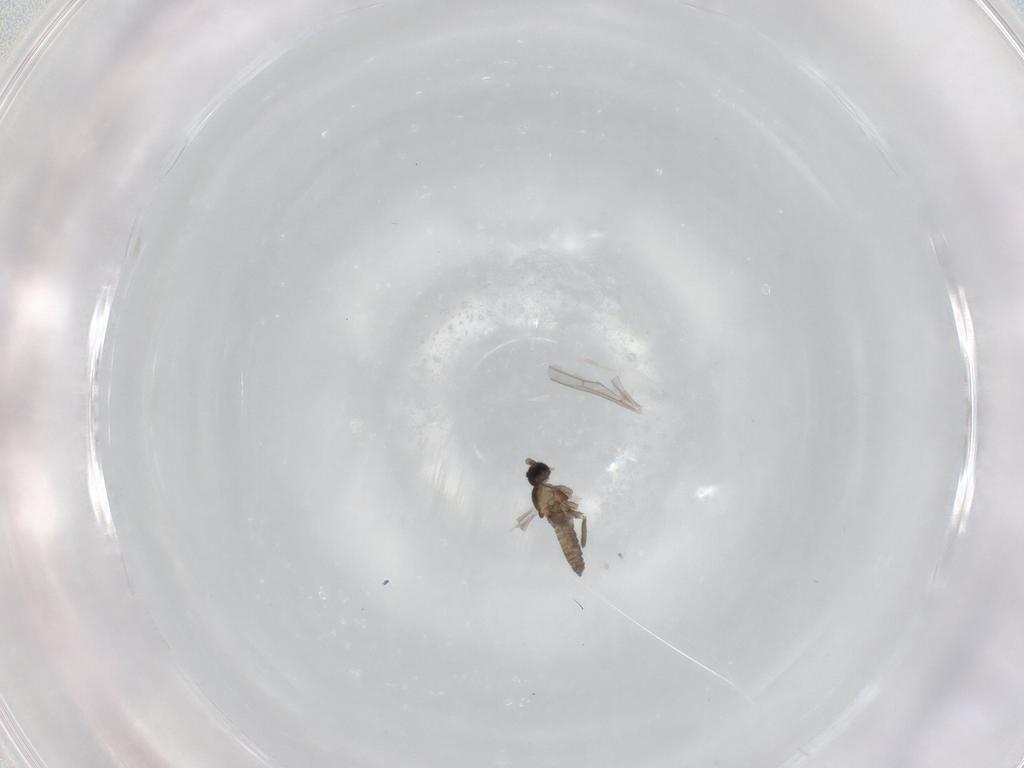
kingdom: Animalia
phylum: Arthropoda
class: Insecta
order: Diptera
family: Cecidomyiidae
